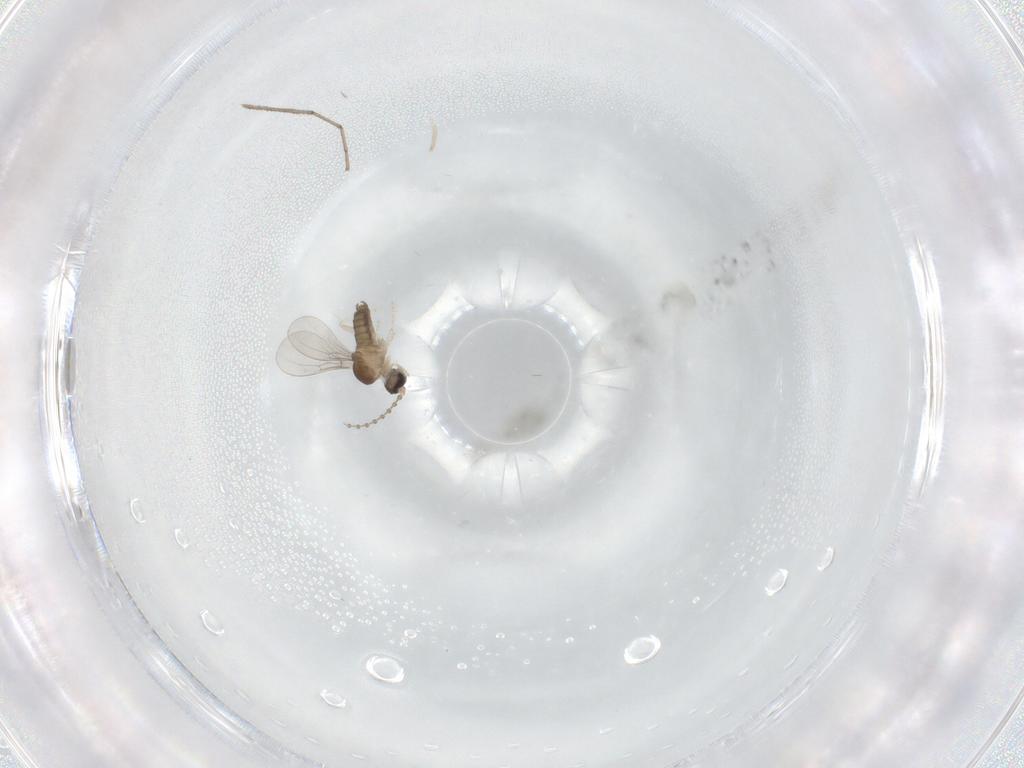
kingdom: Animalia
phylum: Arthropoda
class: Insecta
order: Diptera
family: Cecidomyiidae
